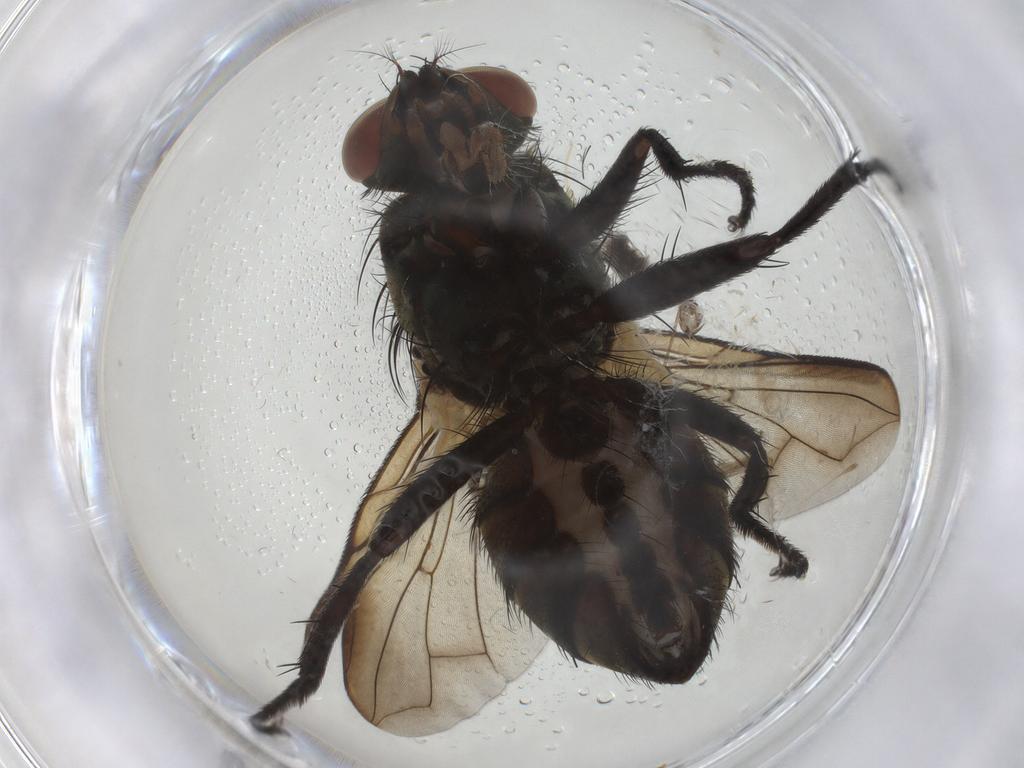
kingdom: Animalia
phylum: Arthropoda
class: Insecta
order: Diptera
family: Sarcophagidae
